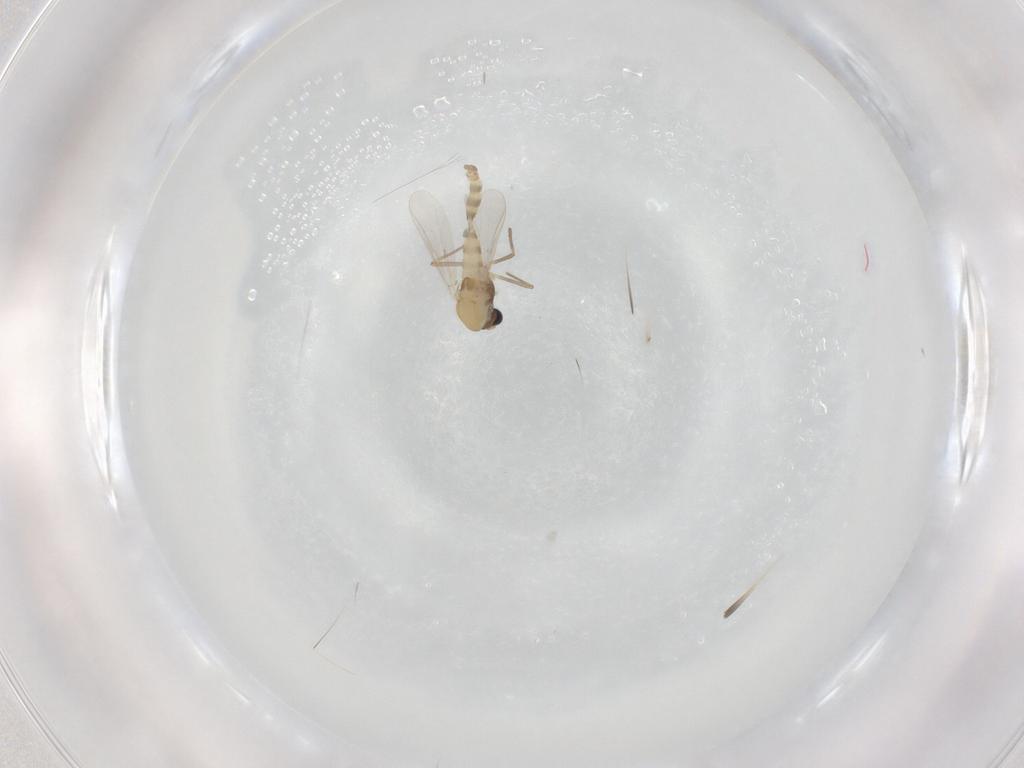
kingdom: Animalia
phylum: Arthropoda
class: Insecta
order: Diptera
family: Chironomidae
